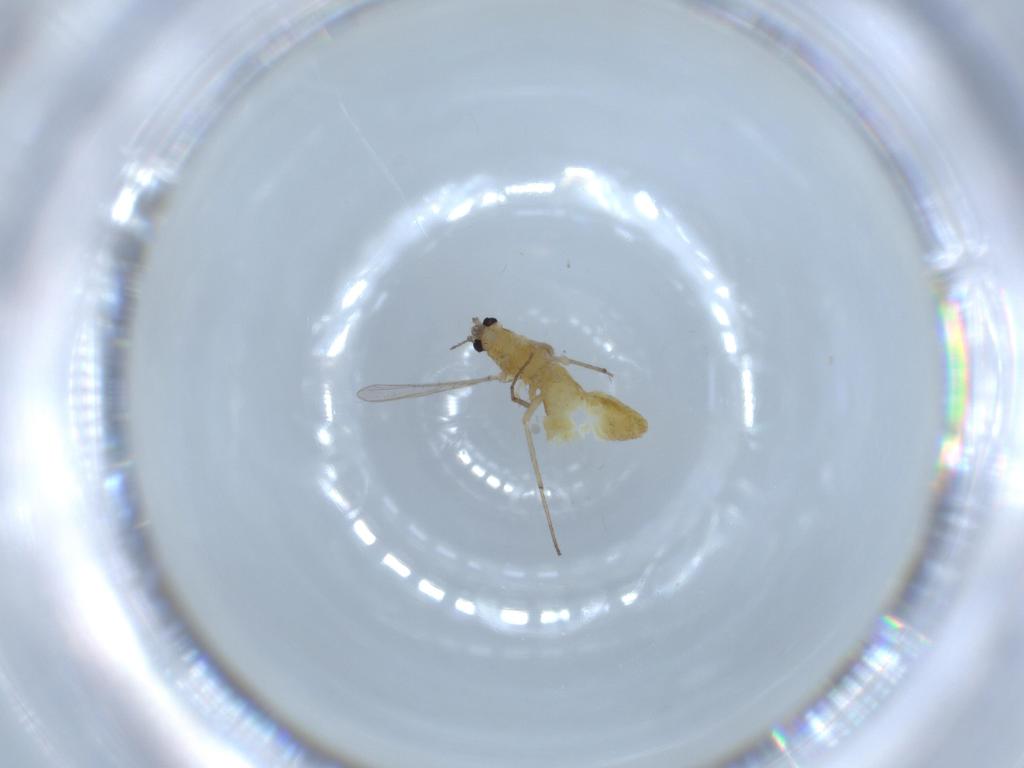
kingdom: Animalia
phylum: Arthropoda
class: Insecta
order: Diptera
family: Chironomidae
